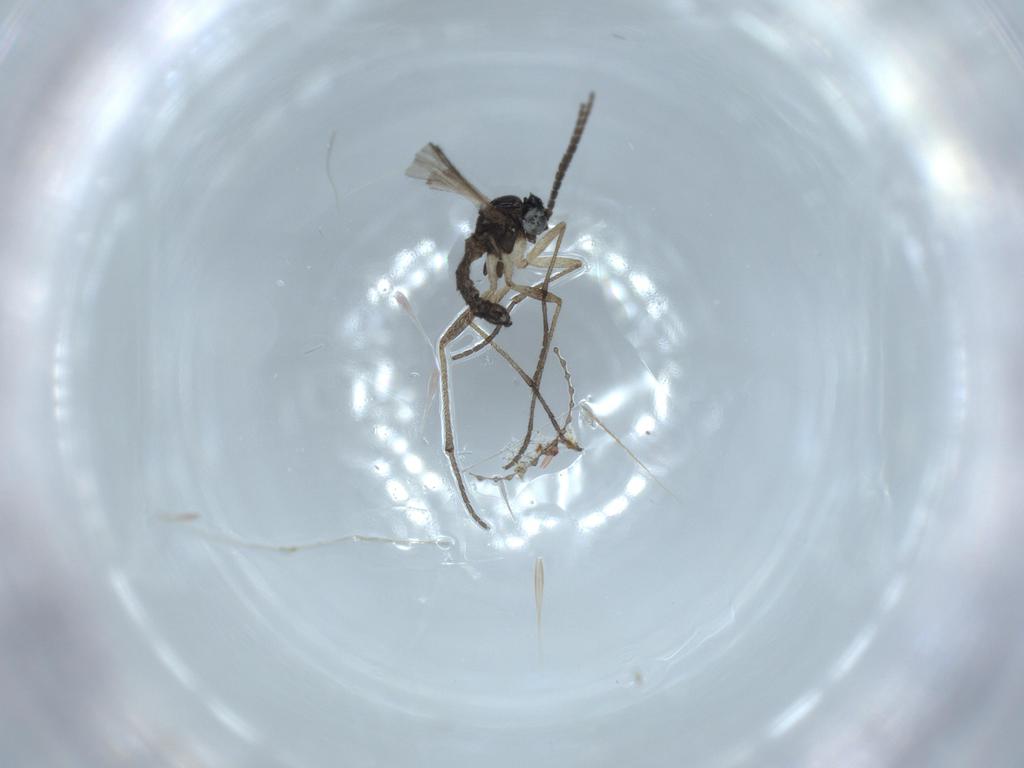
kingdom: Animalia
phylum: Arthropoda
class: Insecta
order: Diptera
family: Sciaridae
